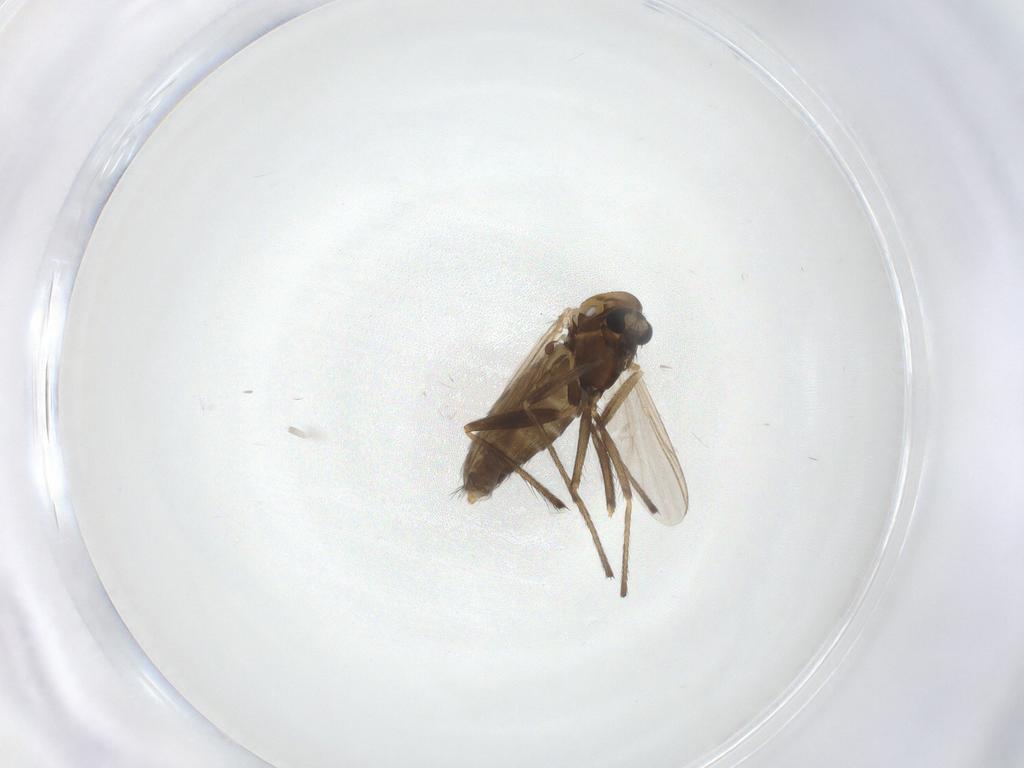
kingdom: Animalia
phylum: Arthropoda
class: Insecta
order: Diptera
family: Chironomidae
